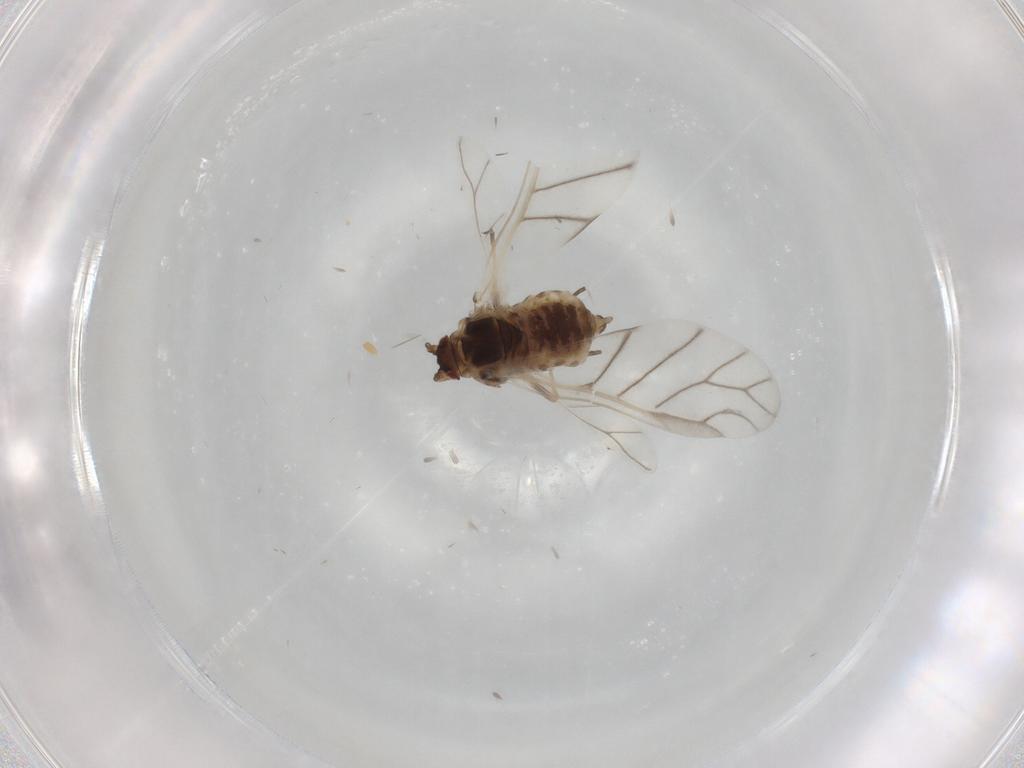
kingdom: Animalia
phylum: Arthropoda
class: Insecta
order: Hemiptera
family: Aphididae
